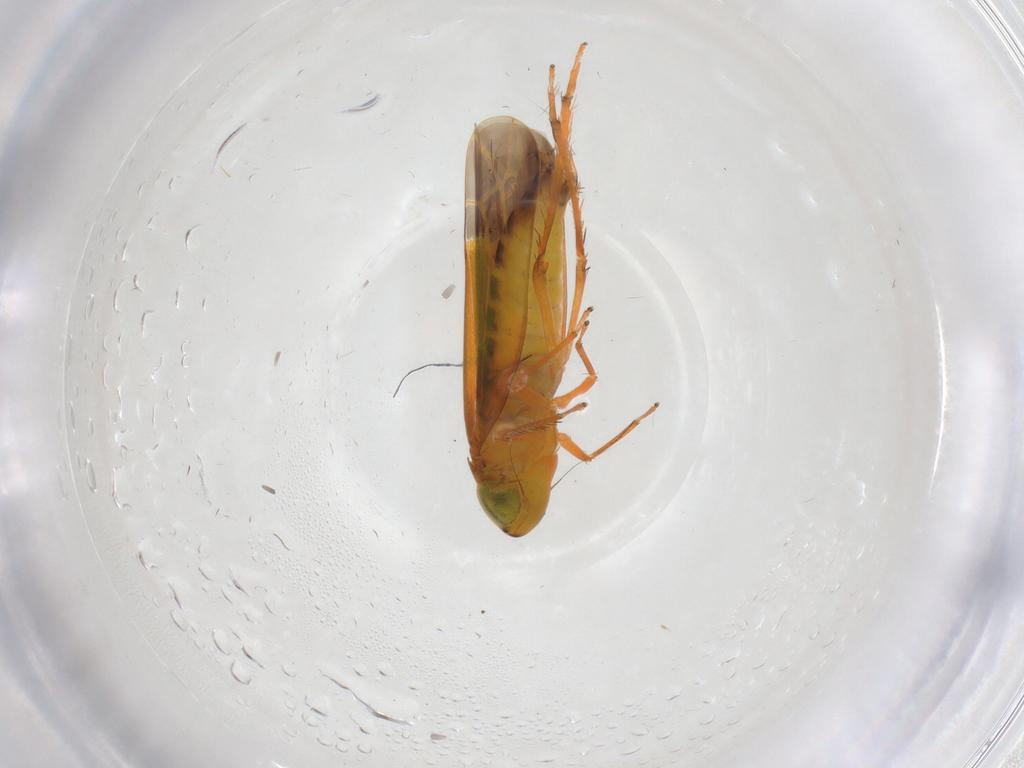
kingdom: Animalia
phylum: Arthropoda
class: Insecta
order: Hemiptera
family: Cicadellidae
